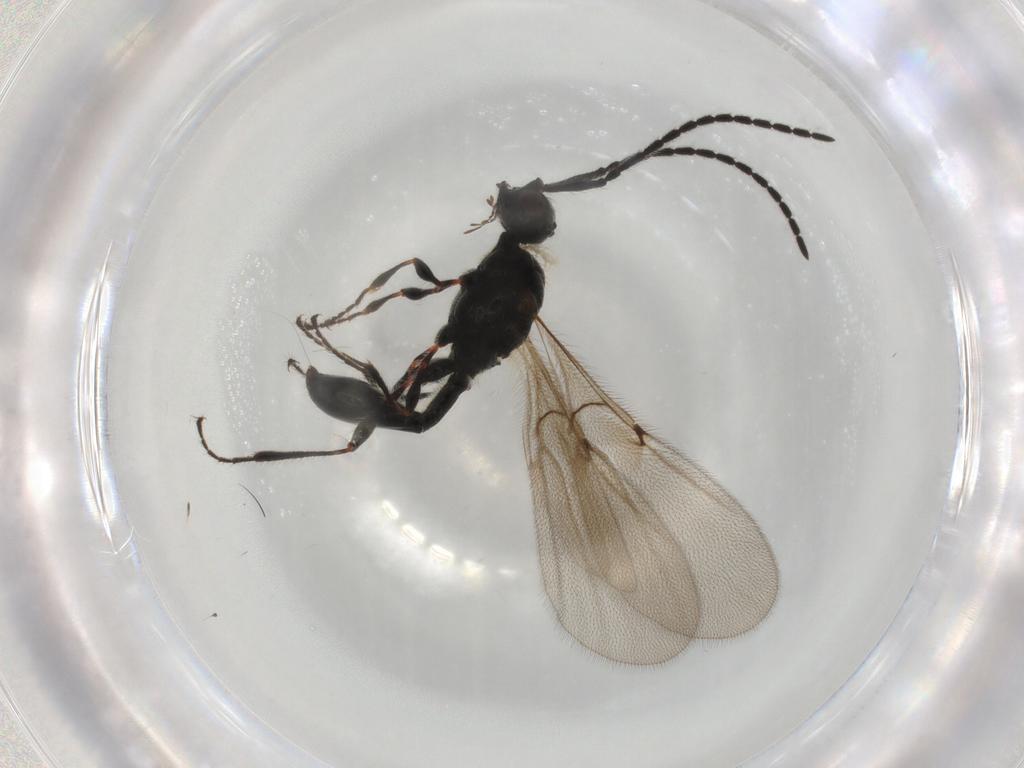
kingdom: Animalia
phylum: Arthropoda
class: Insecta
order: Hymenoptera
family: Diapriidae
